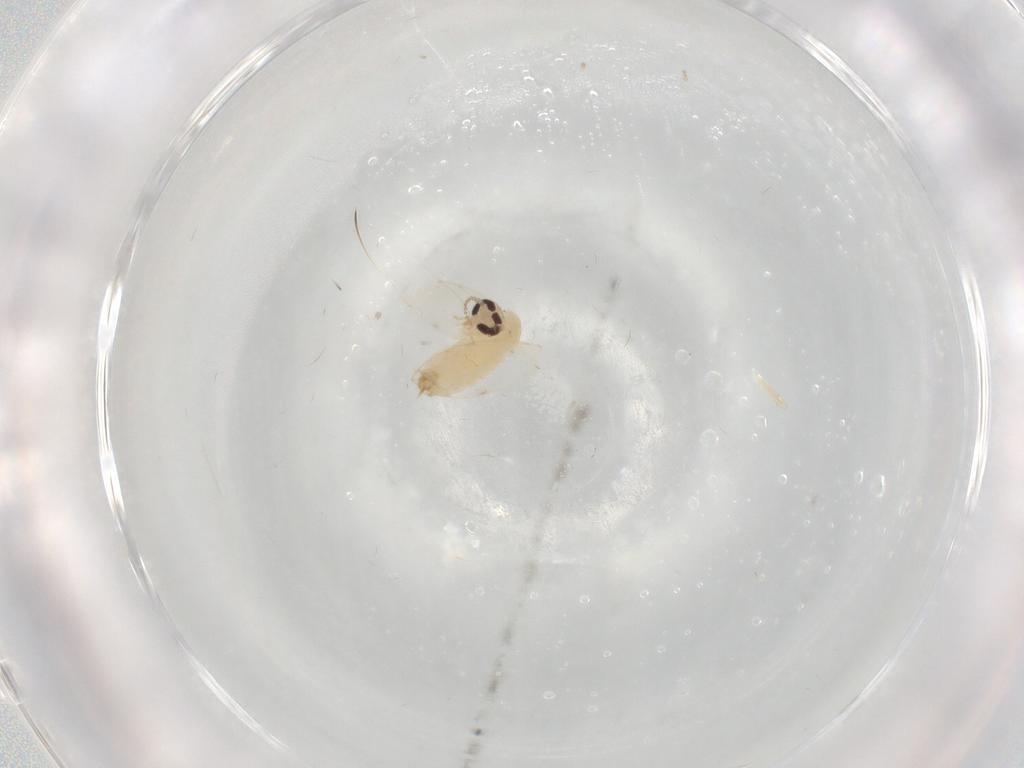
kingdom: Animalia
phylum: Arthropoda
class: Insecta
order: Diptera
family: Psychodidae
